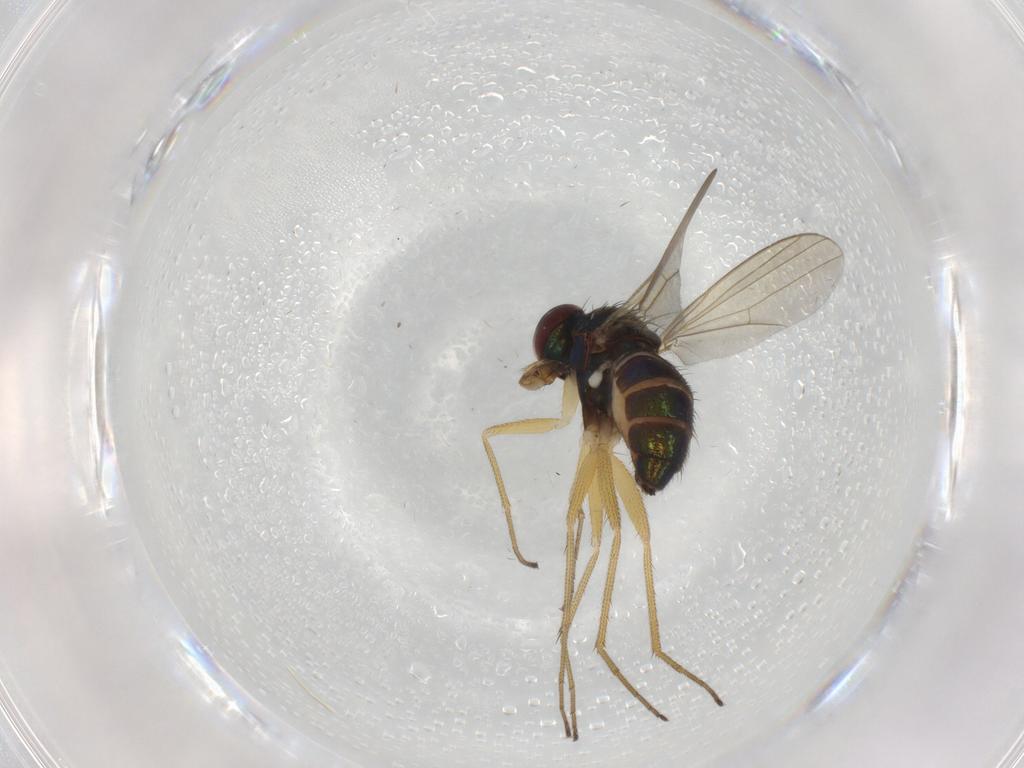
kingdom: Animalia
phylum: Arthropoda
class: Insecta
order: Diptera
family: Dolichopodidae
